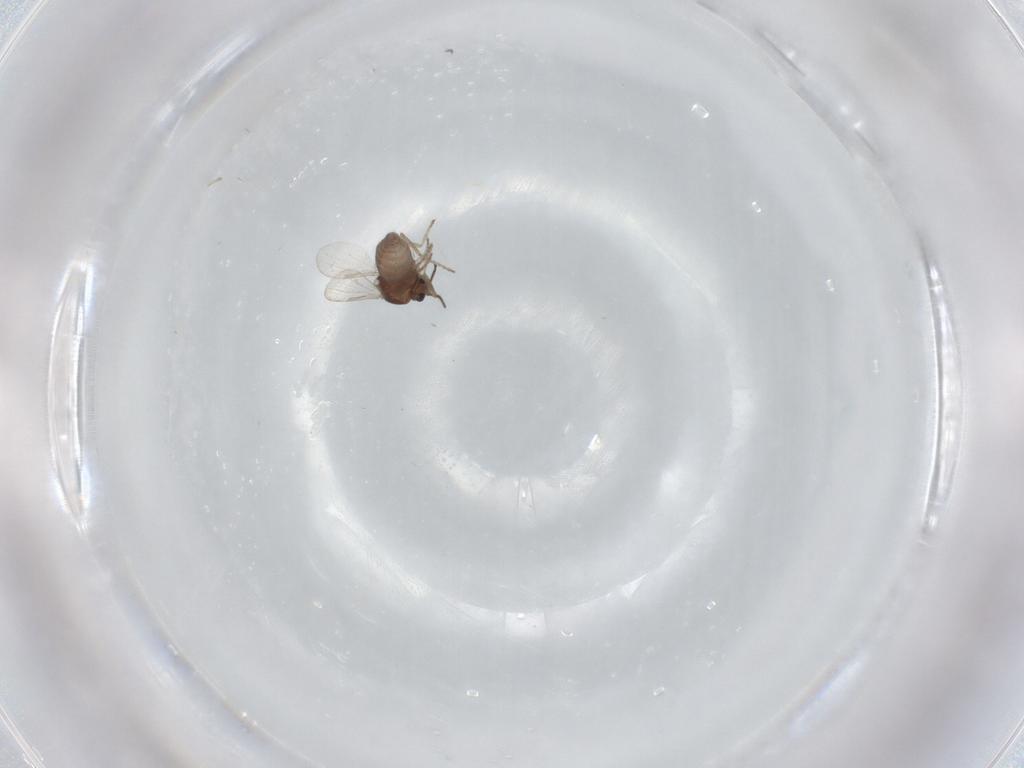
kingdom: Animalia
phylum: Arthropoda
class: Insecta
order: Diptera
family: Ceratopogonidae
